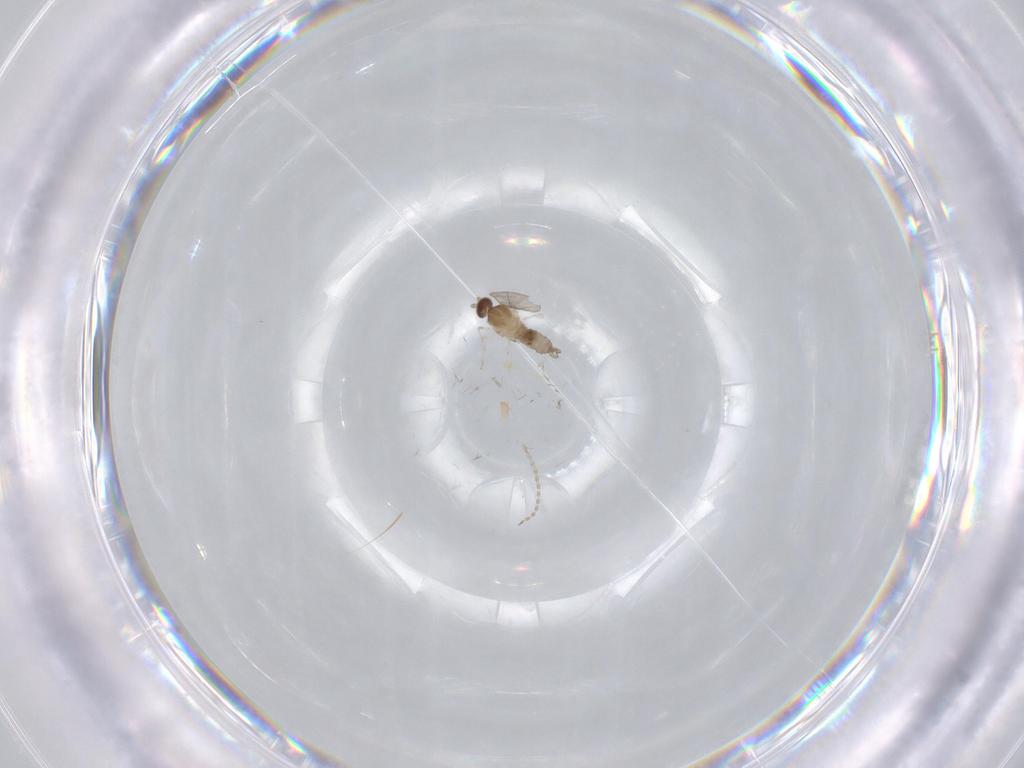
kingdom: Animalia
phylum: Arthropoda
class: Insecta
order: Diptera
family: Cecidomyiidae
